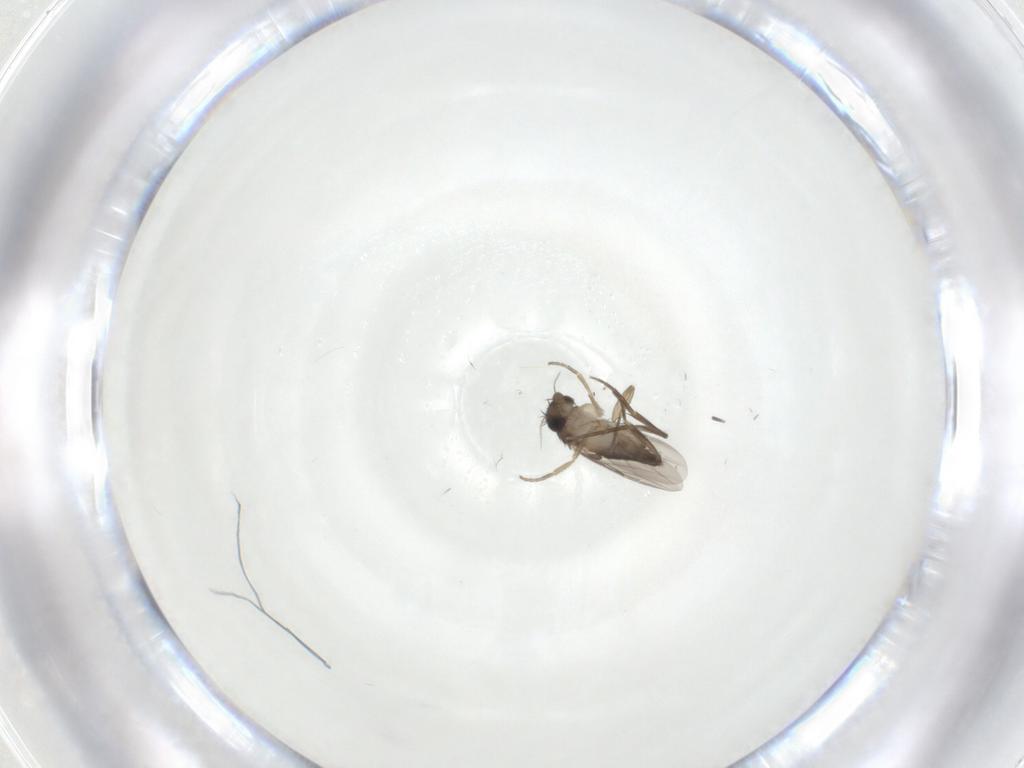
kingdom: Animalia
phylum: Arthropoda
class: Insecta
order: Diptera
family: Phoridae
